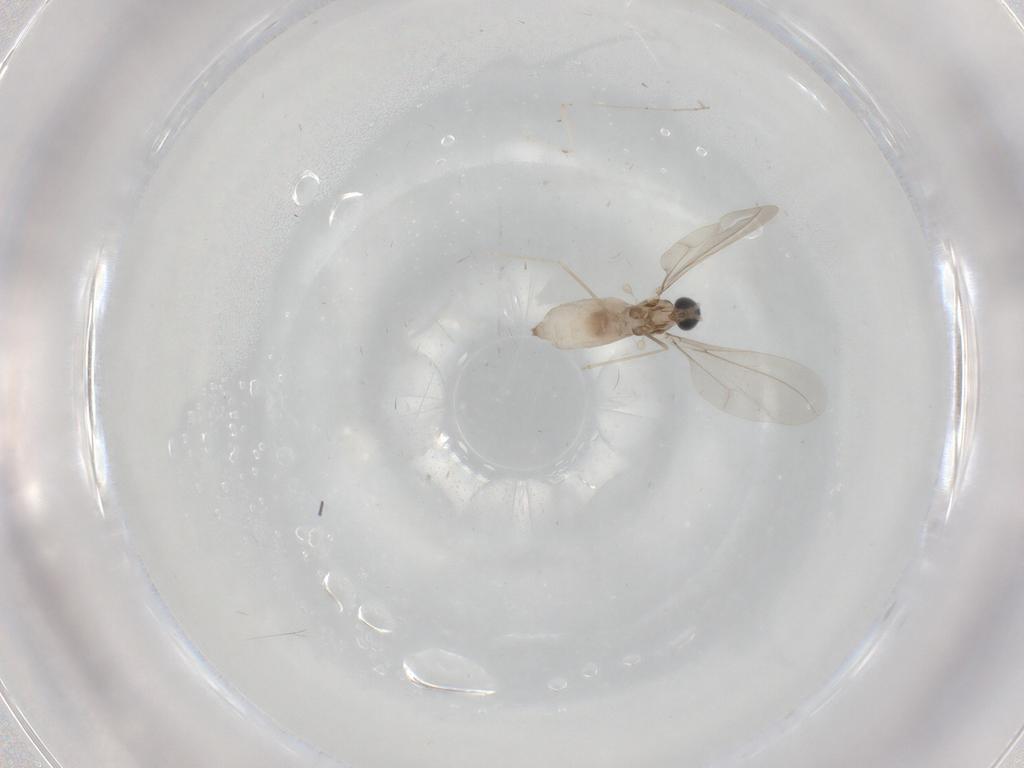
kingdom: Animalia
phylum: Arthropoda
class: Insecta
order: Diptera
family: Cecidomyiidae
